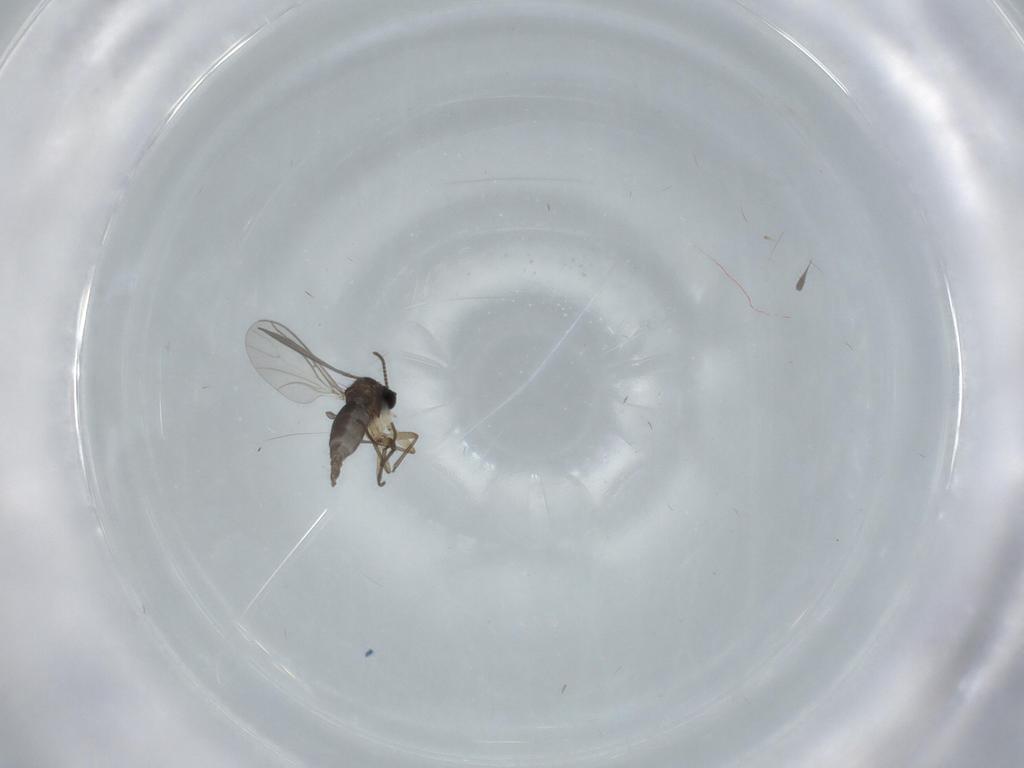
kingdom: Animalia
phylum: Arthropoda
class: Insecta
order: Diptera
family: Sciaridae
